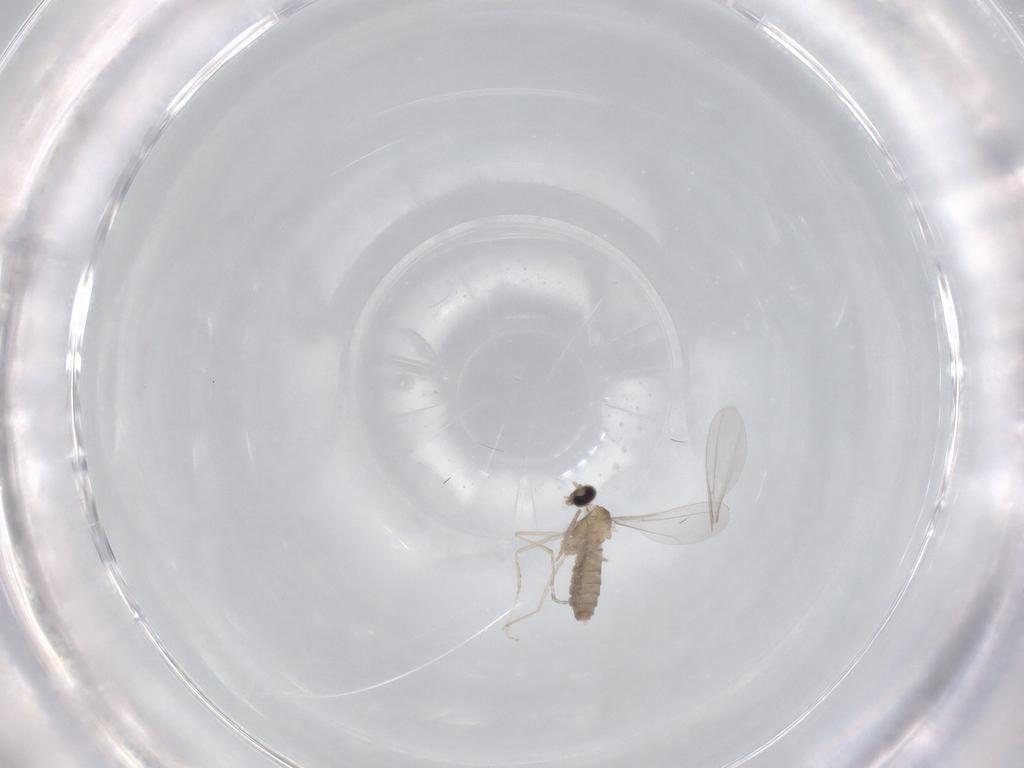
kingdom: Animalia
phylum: Arthropoda
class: Insecta
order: Diptera
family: Cecidomyiidae
